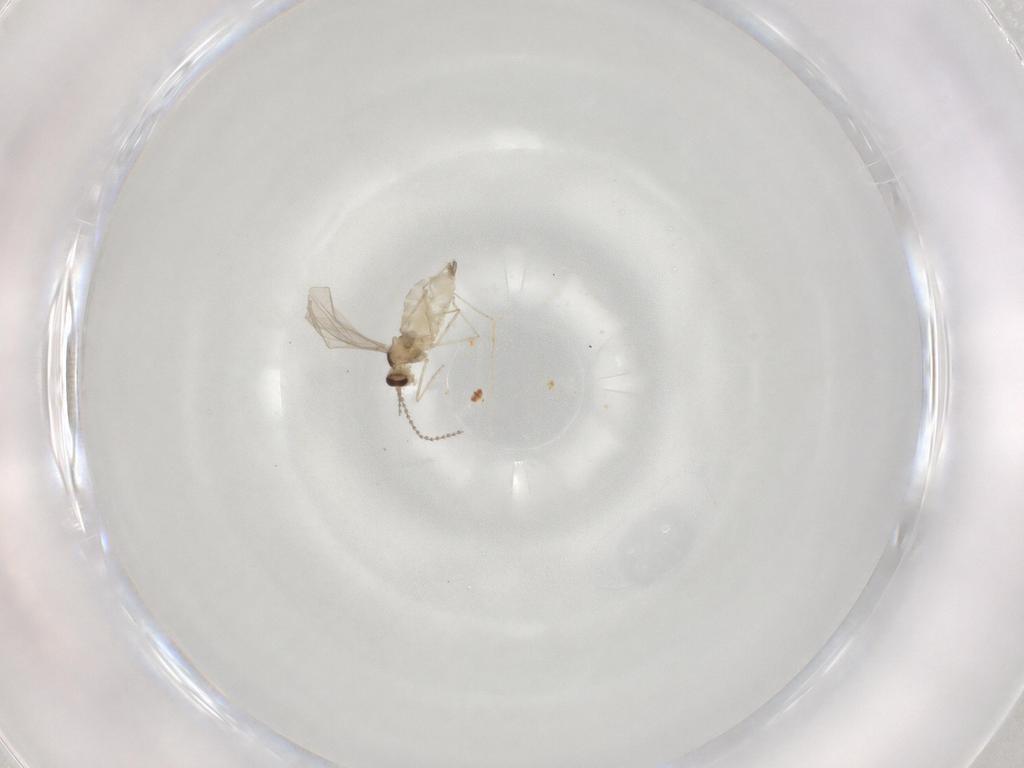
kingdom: Animalia
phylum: Arthropoda
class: Insecta
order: Diptera
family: Cecidomyiidae
